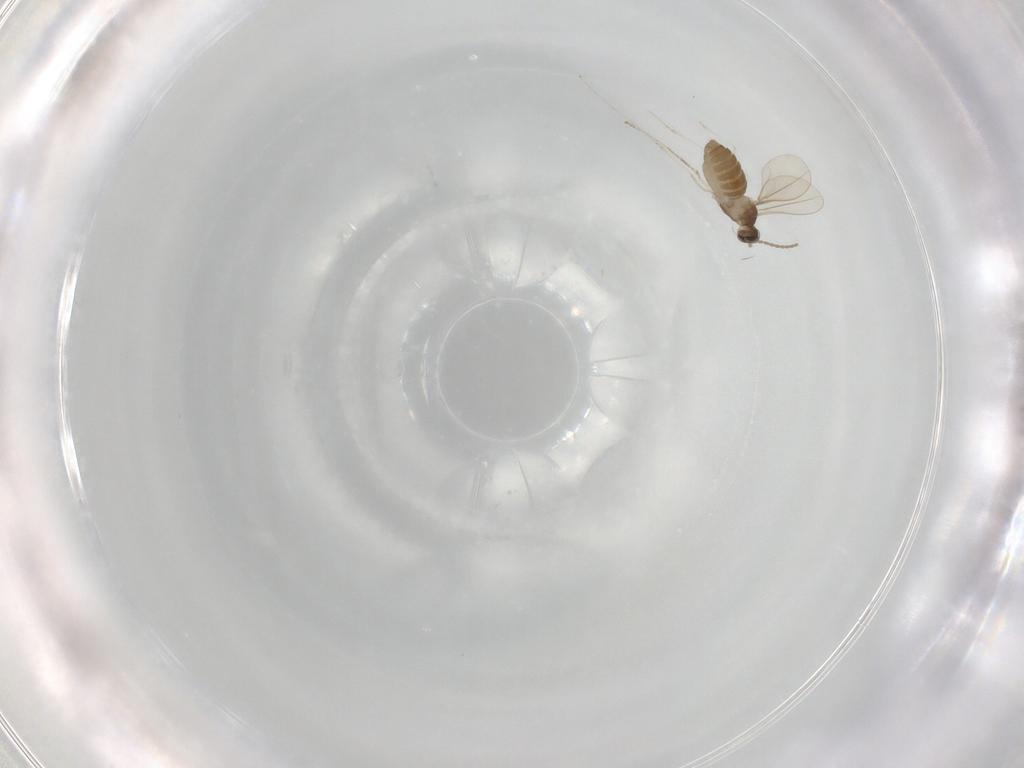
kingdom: Animalia
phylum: Arthropoda
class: Insecta
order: Diptera
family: Cecidomyiidae
